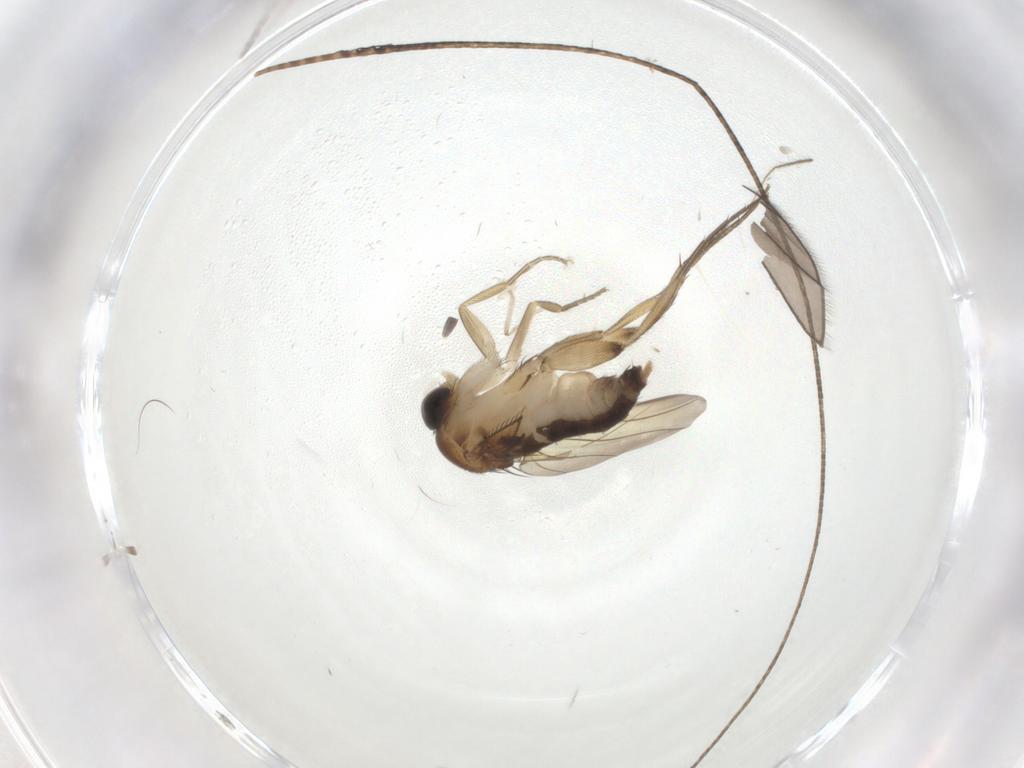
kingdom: Animalia
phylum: Arthropoda
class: Insecta
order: Diptera
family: Phoridae
